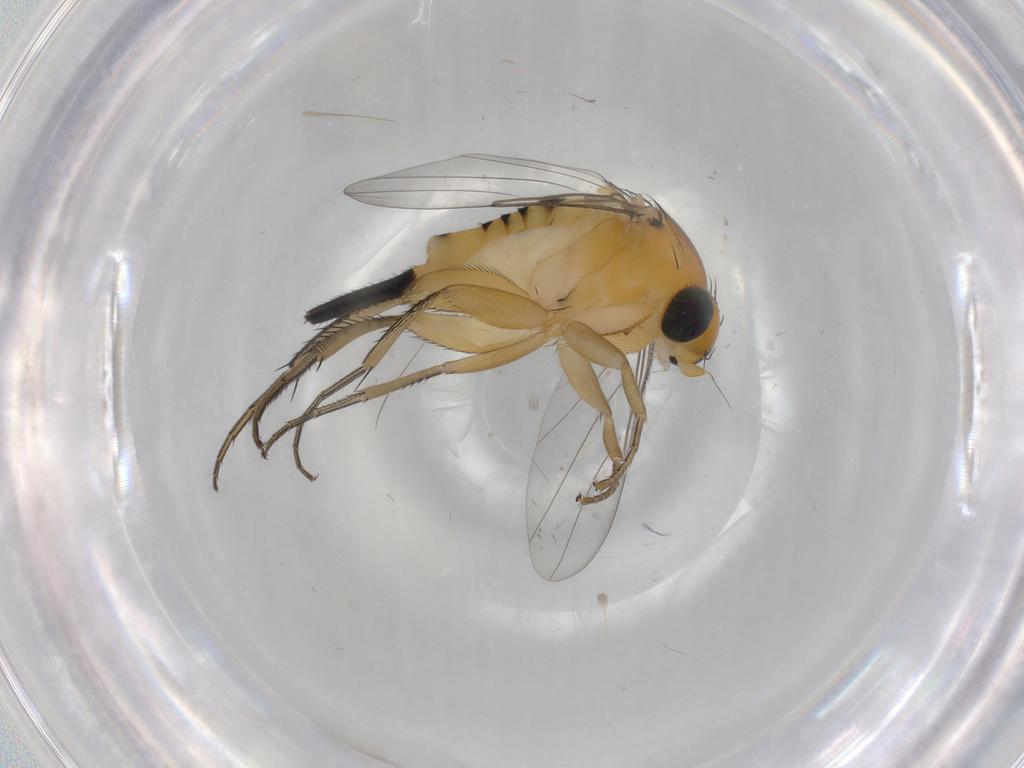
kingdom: Animalia
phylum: Arthropoda
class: Insecta
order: Diptera
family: Phoridae
